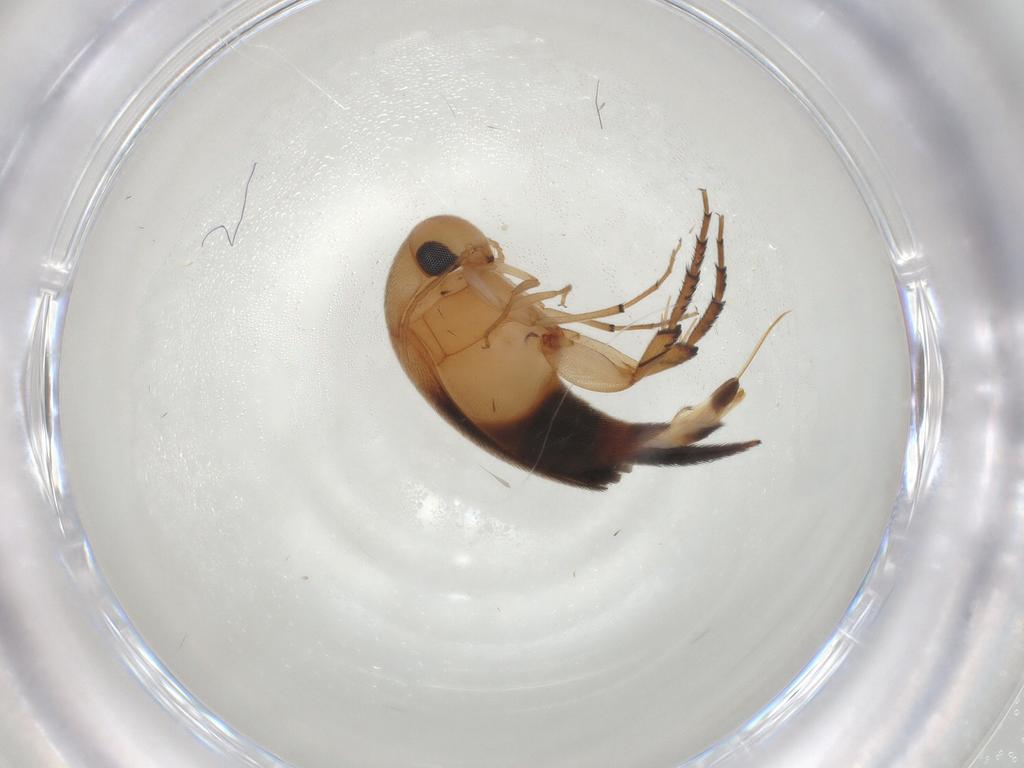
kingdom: Animalia
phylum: Arthropoda
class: Insecta
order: Coleoptera
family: Mordellidae
